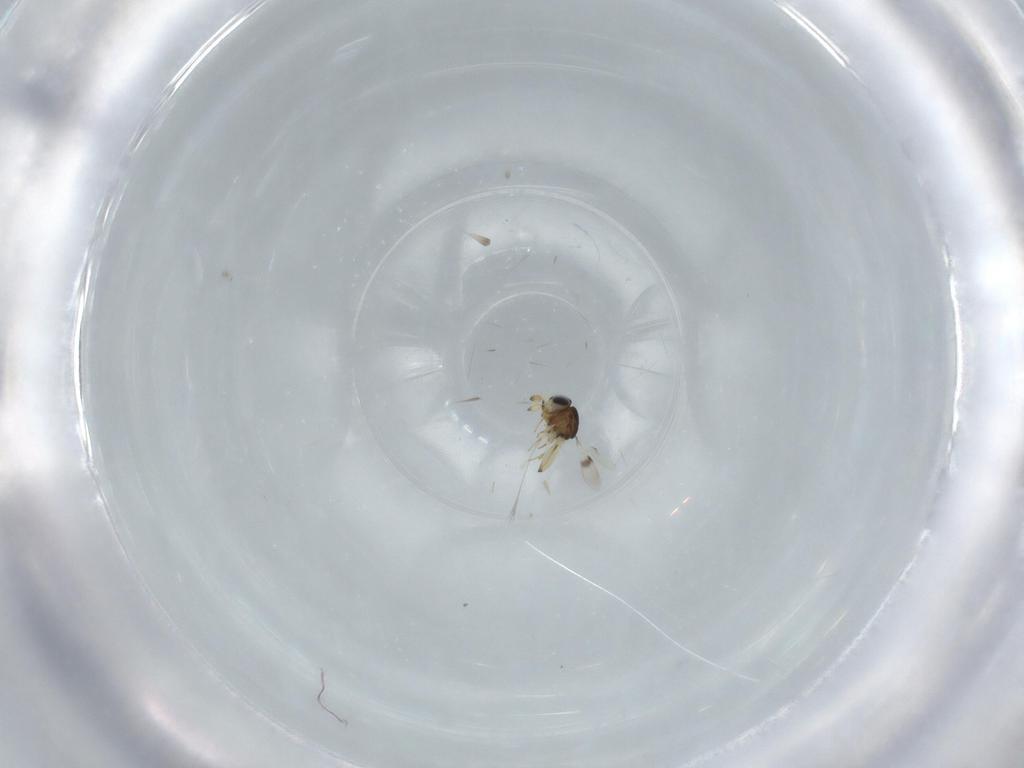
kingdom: Animalia
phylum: Arthropoda
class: Insecta
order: Hymenoptera
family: Scelionidae
